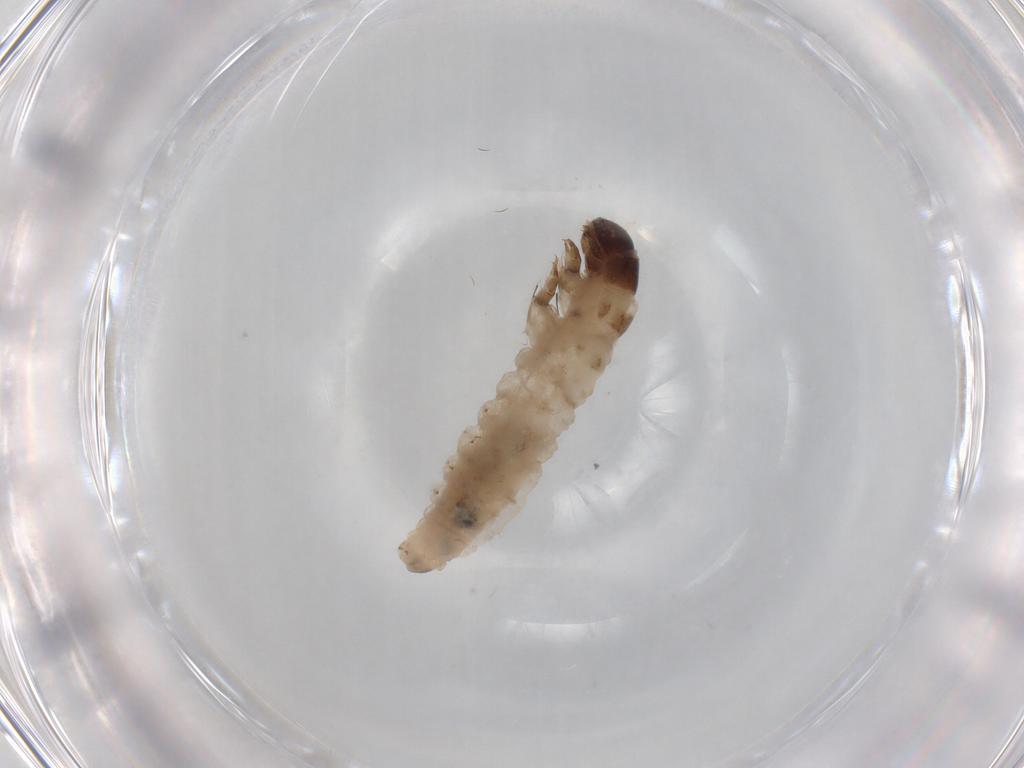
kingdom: Animalia
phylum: Arthropoda
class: Insecta
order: Lepidoptera
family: Psychidae
